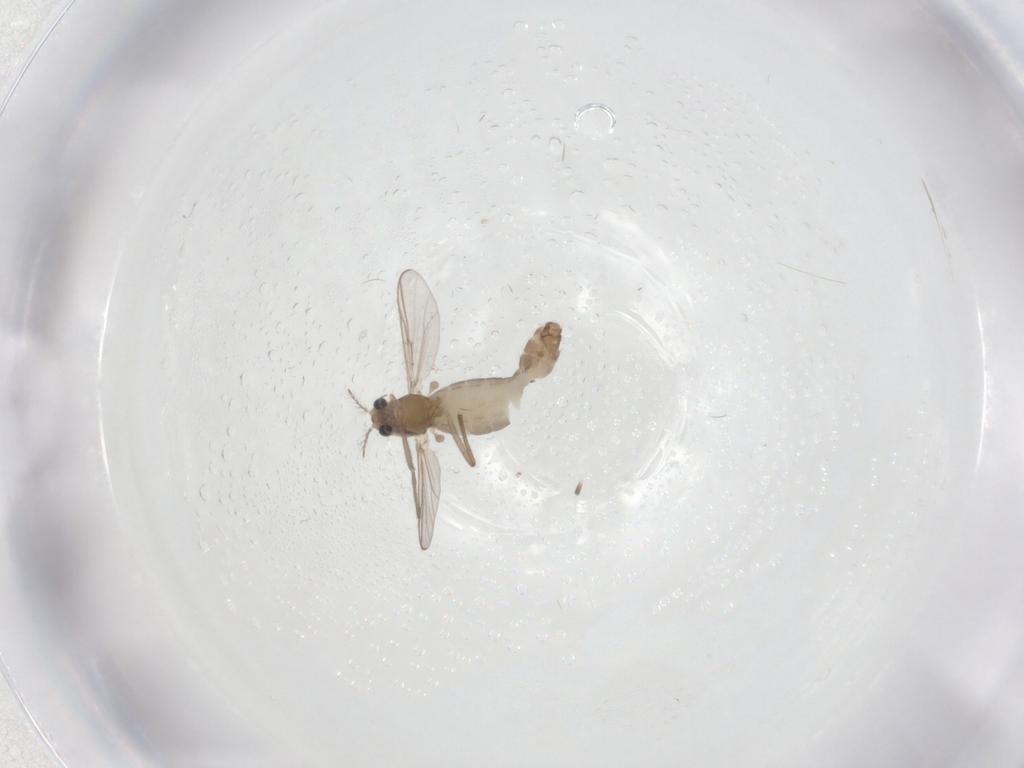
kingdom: Animalia
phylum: Arthropoda
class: Insecta
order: Diptera
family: Chironomidae
